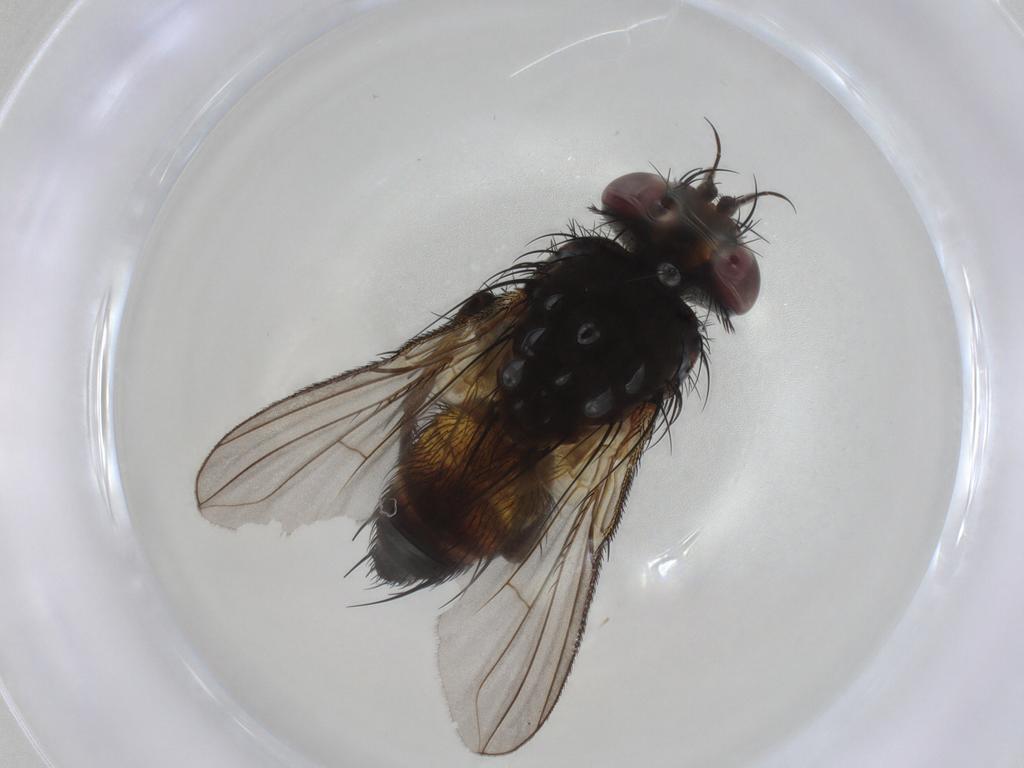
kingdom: Animalia
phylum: Arthropoda
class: Insecta
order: Diptera
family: Tachinidae
